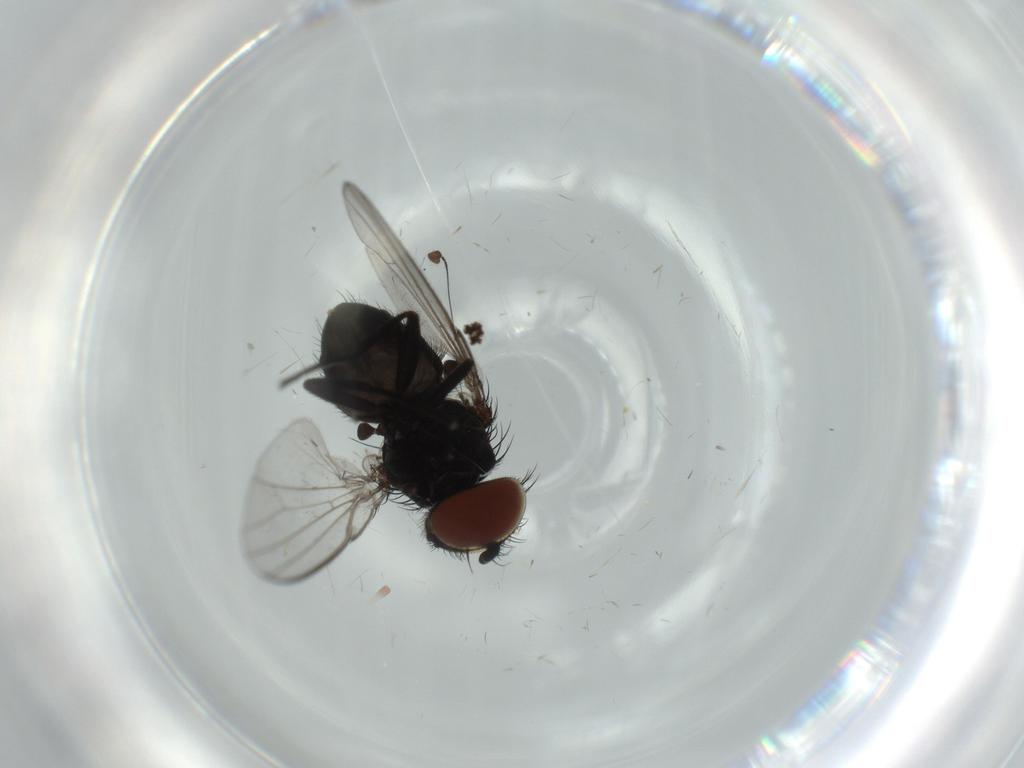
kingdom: Animalia
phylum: Arthropoda
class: Insecta
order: Diptera
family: Milichiidae
